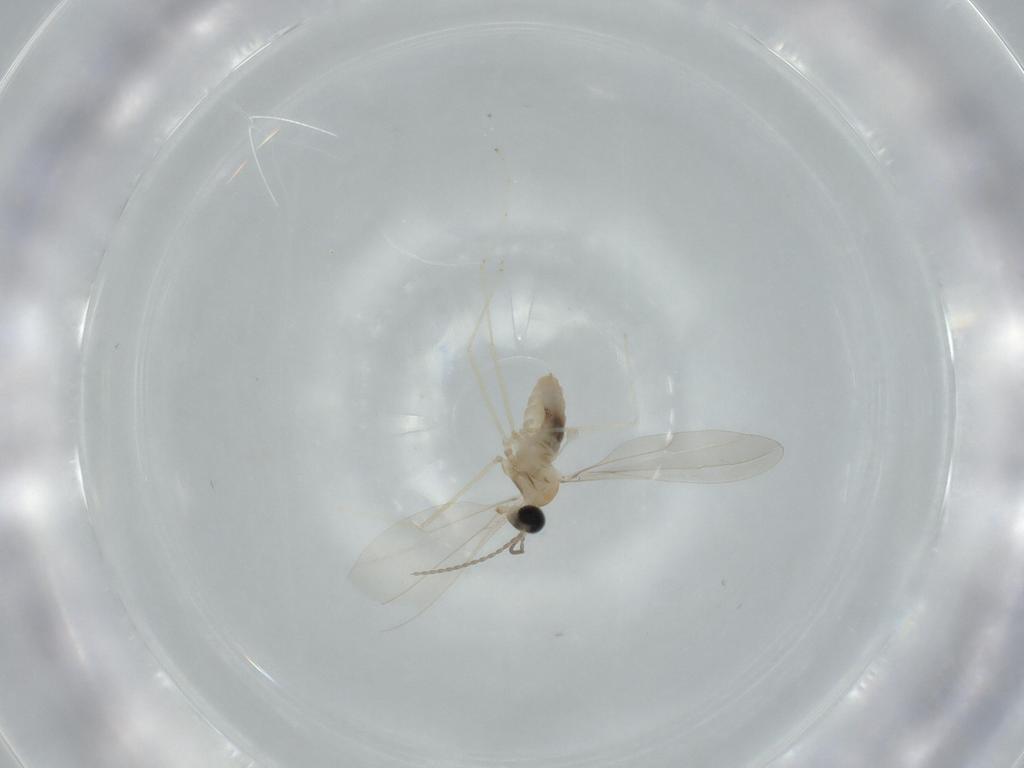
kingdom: Animalia
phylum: Arthropoda
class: Insecta
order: Diptera
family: Cecidomyiidae
